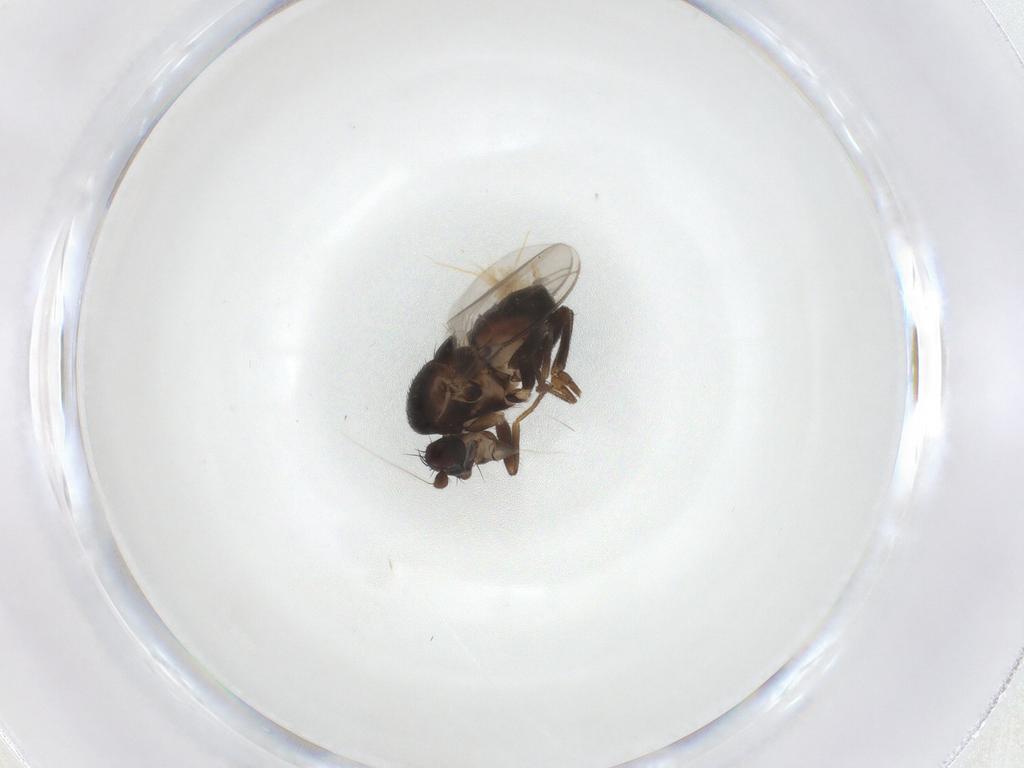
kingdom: Animalia
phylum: Arthropoda
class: Insecta
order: Diptera
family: Sphaeroceridae
